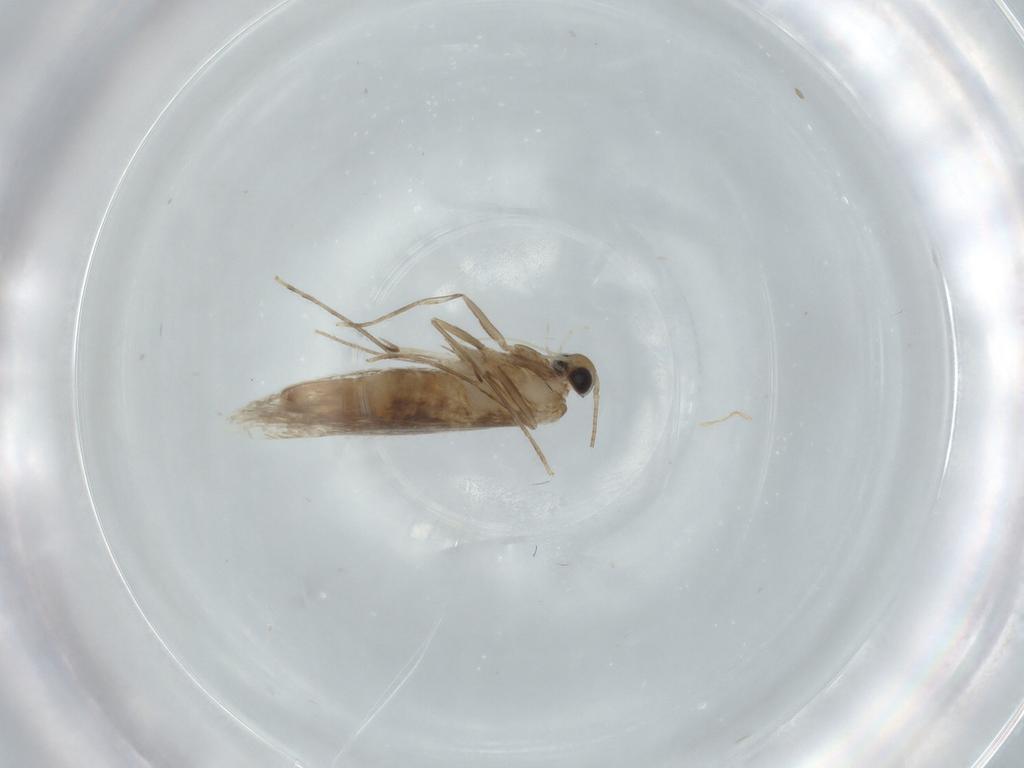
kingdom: Animalia
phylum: Arthropoda
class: Insecta
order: Lepidoptera
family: Gracillariidae
